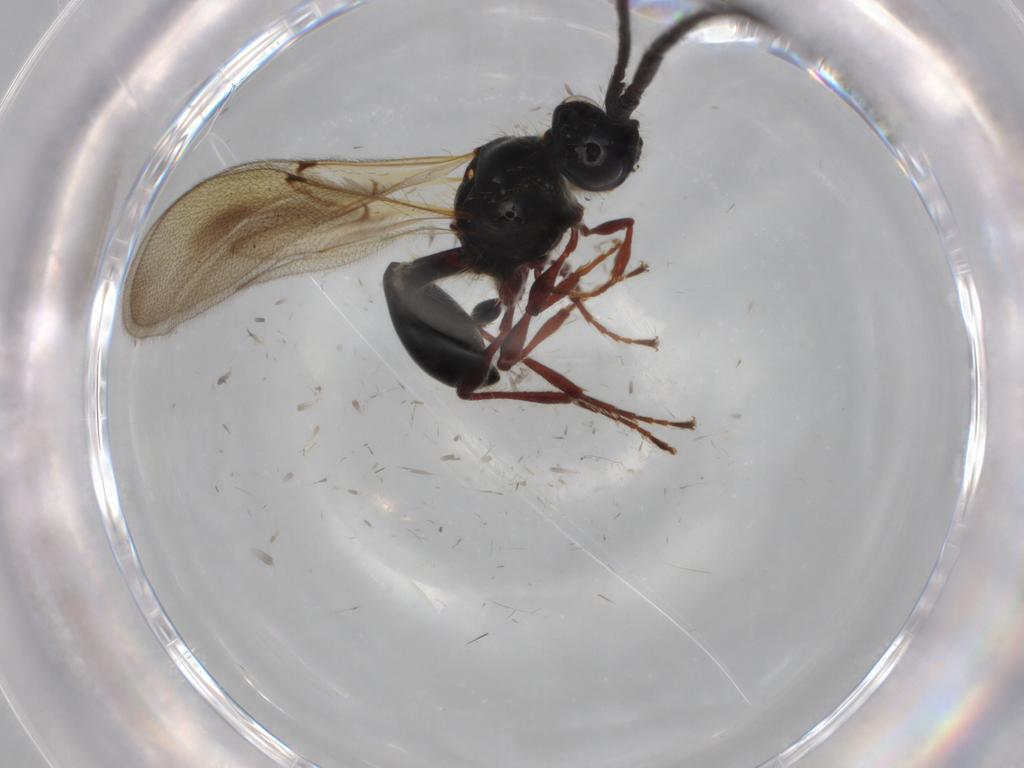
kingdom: Animalia
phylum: Arthropoda
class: Insecta
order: Hymenoptera
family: Diapriidae
